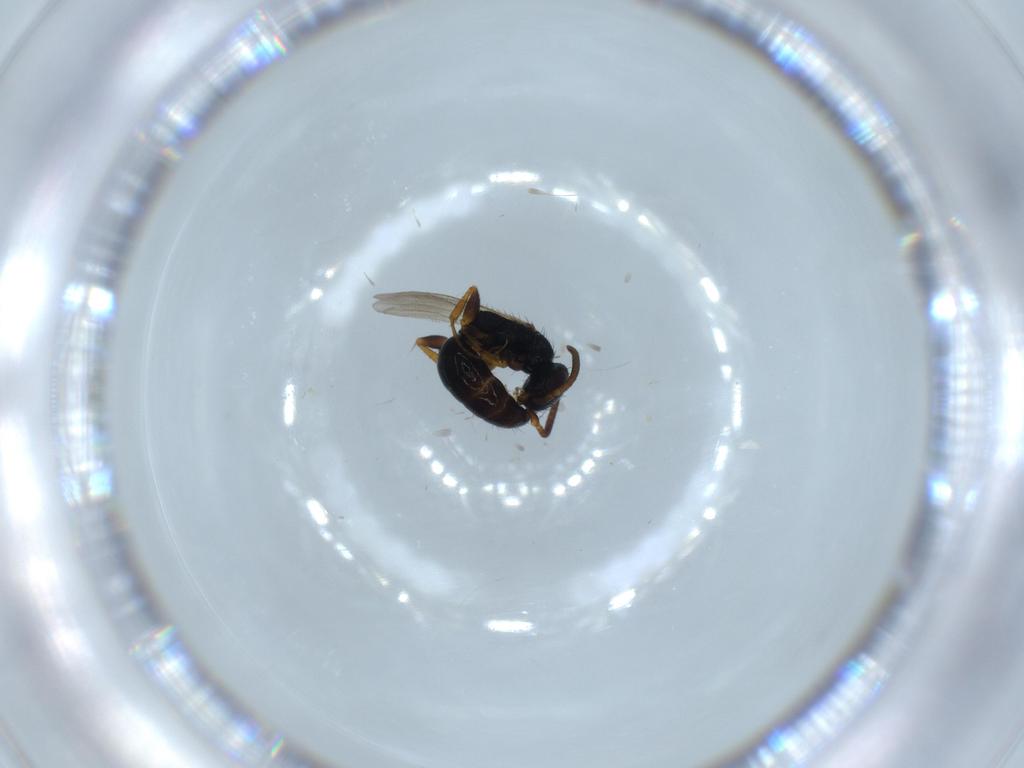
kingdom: Animalia
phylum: Arthropoda
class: Insecta
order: Hymenoptera
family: Bethylidae
